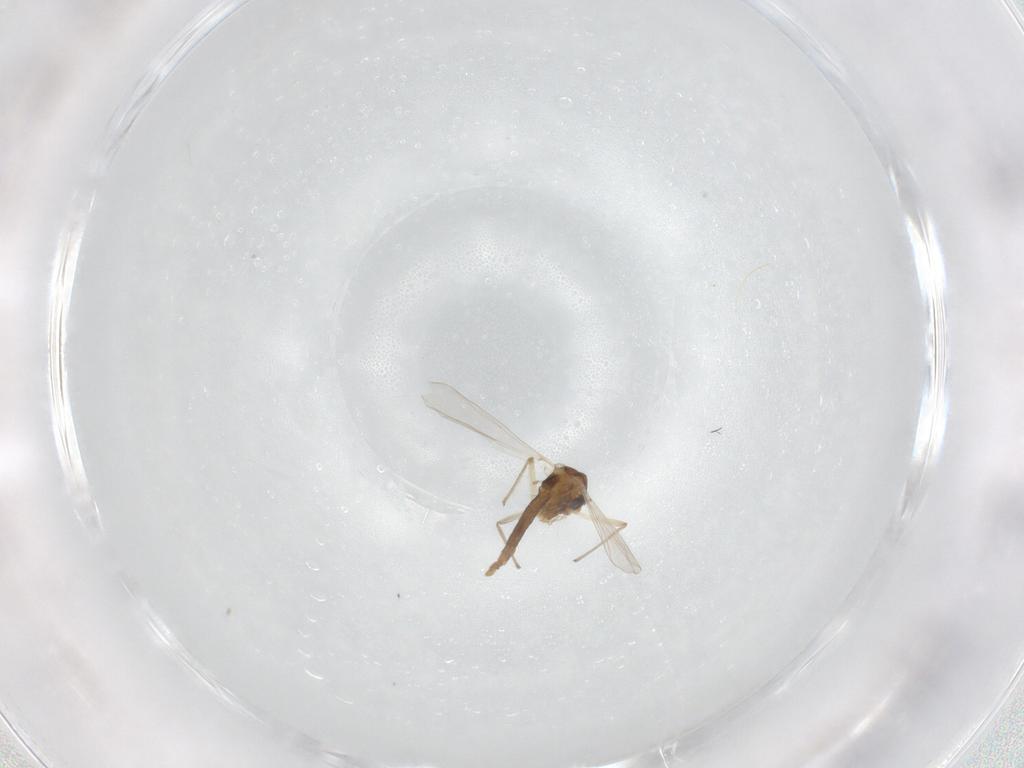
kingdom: Animalia
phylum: Arthropoda
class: Insecta
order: Diptera
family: Chironomidae
